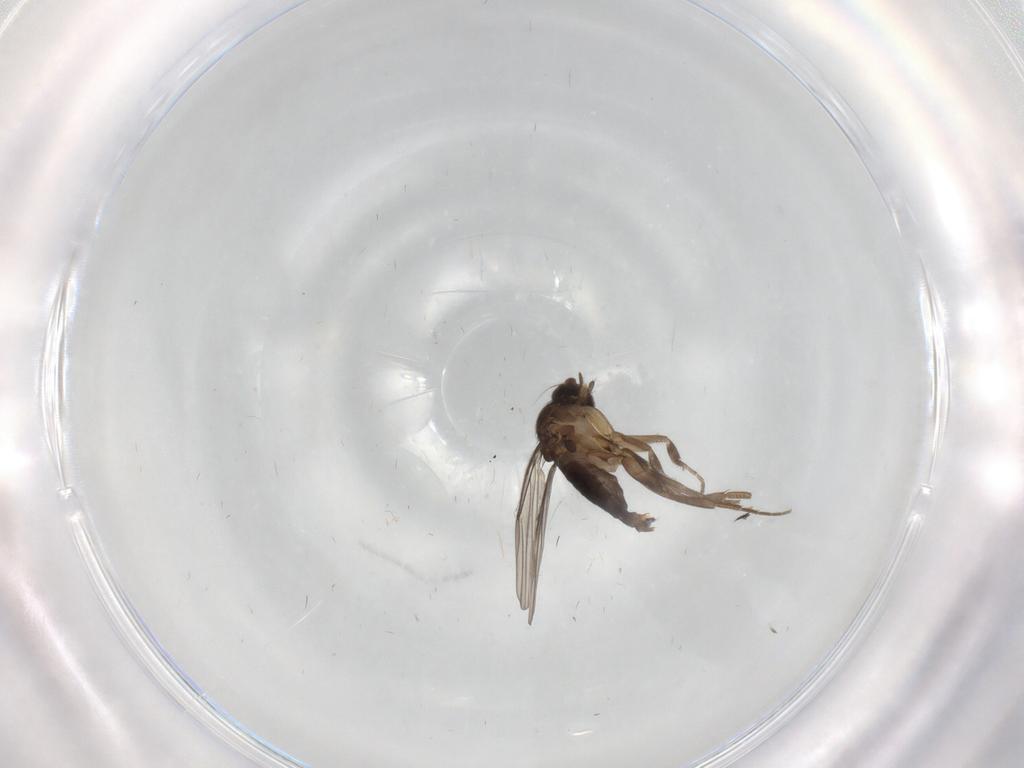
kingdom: Animalia
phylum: Arthropoda
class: Insecta
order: Diptera
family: Phoridae
